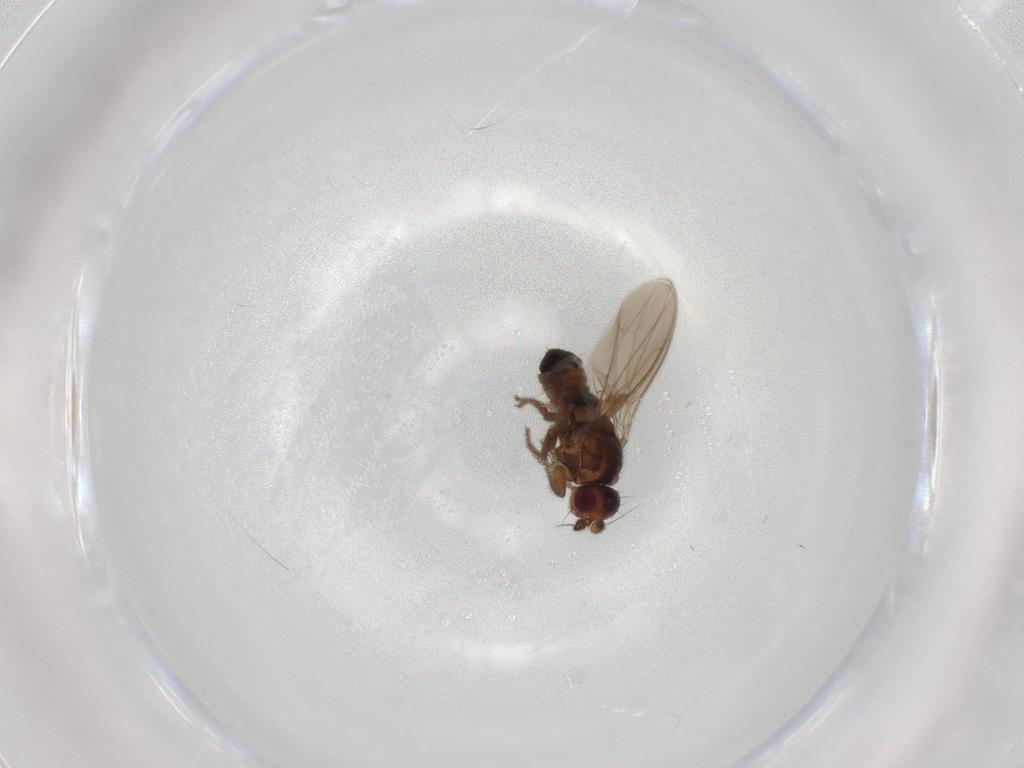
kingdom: Animalia
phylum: Arthropoda
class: Insecta
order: Diptera
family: Sphaeroceridae
